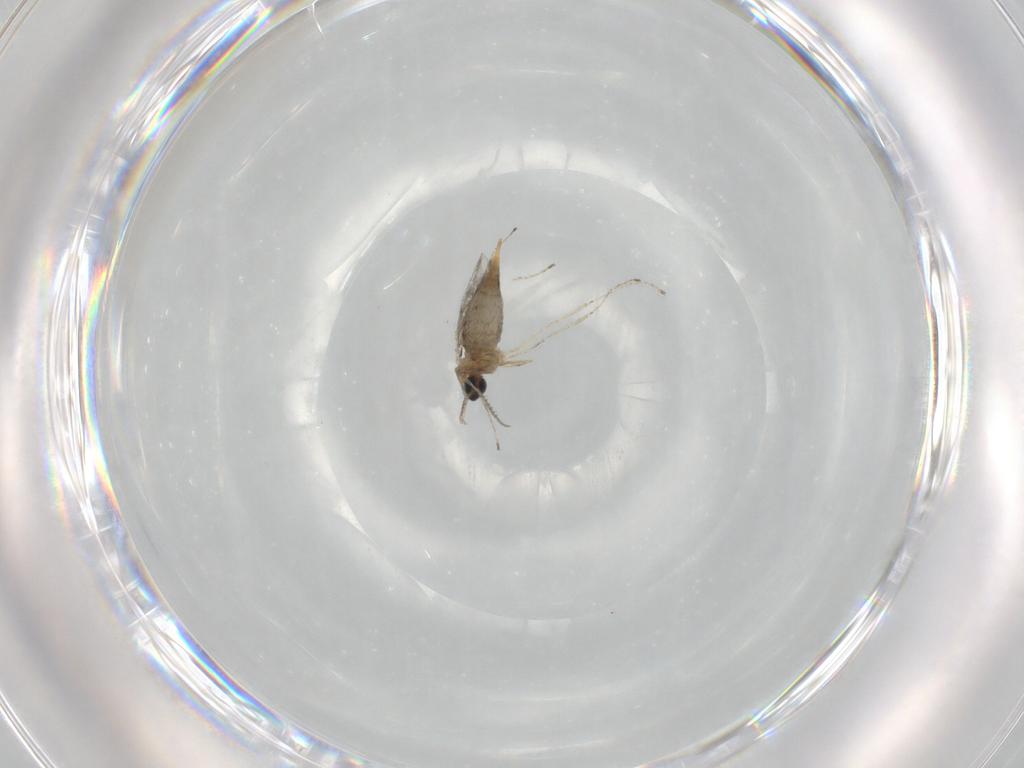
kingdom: Animalia
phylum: Arthropoda
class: Insecta
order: Diptera
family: Cecidomyiidae
